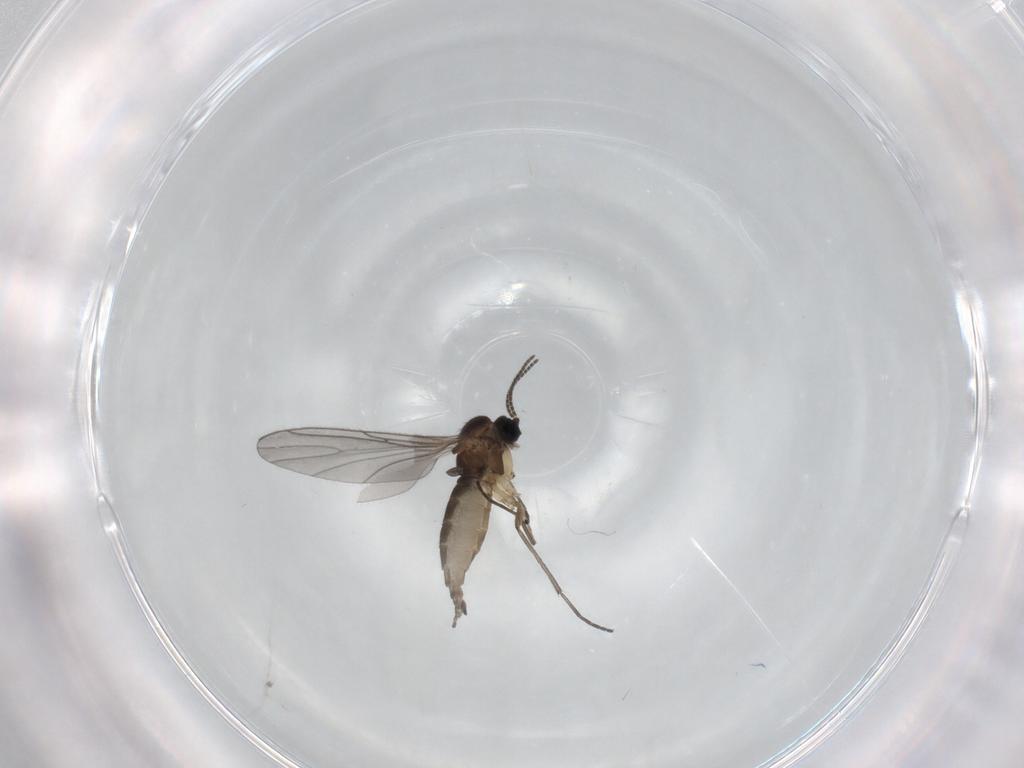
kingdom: Animalia
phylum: Arthropoda
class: Insecta
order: Diptera
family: Sciaridae
